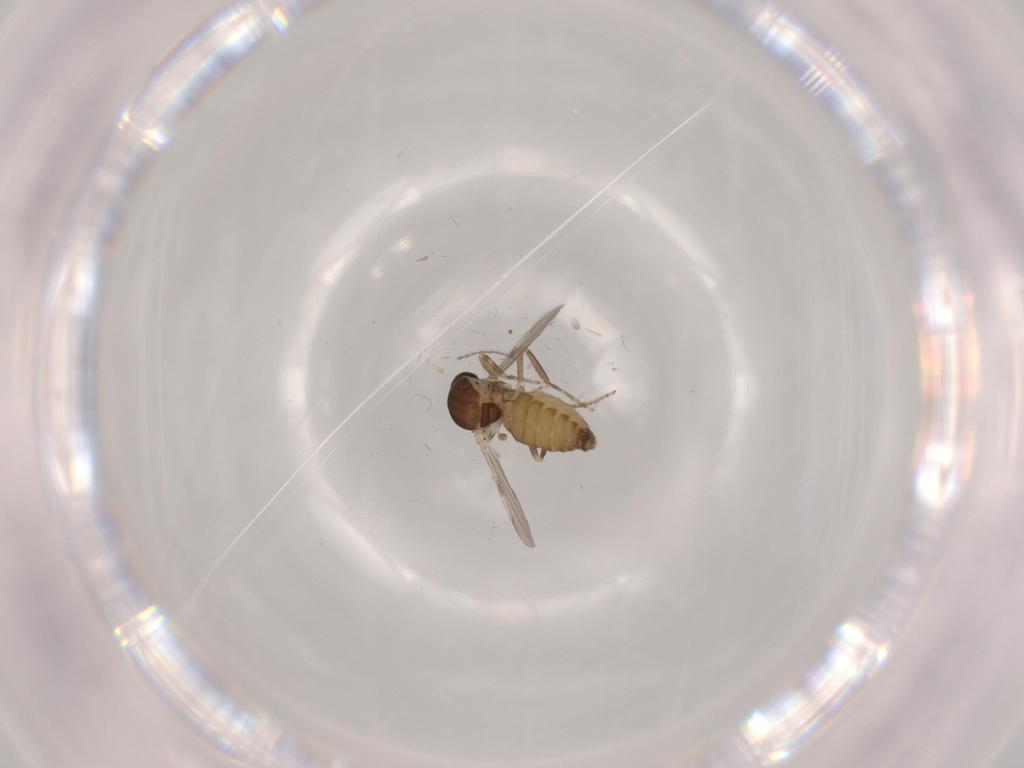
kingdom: Animalia
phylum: Arthropoda
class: Insecta
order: Diptera
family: Ceratopogonidae
